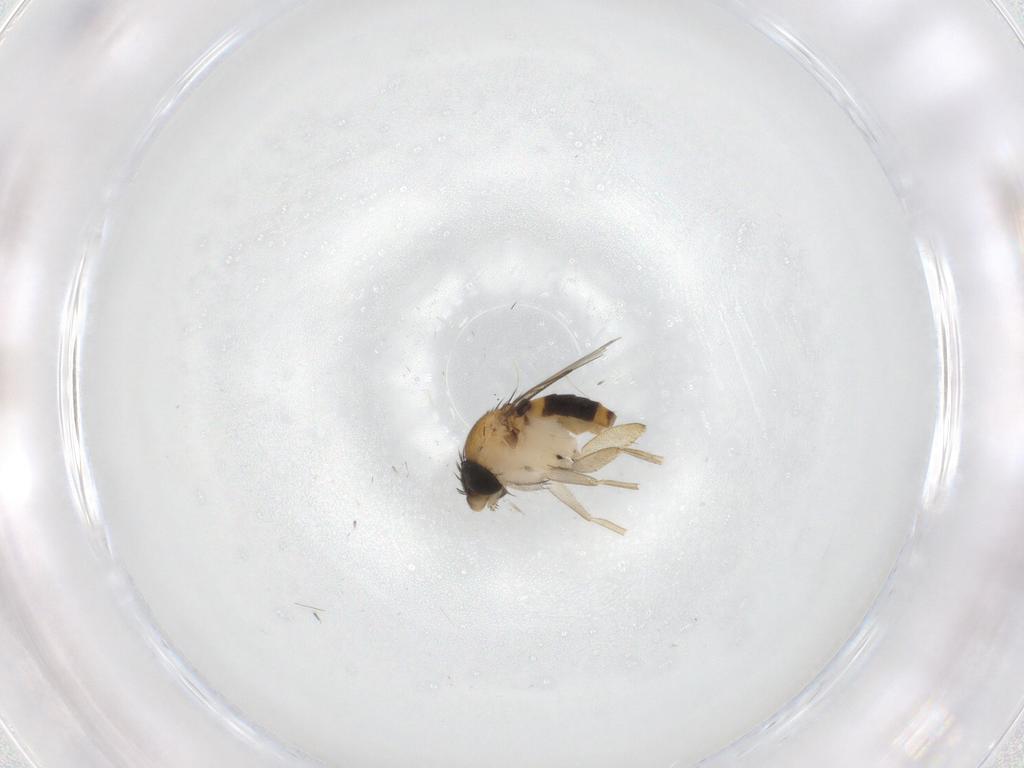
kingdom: Animalia
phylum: Arthropoda
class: Insecta
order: Diptera
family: Phoridae
